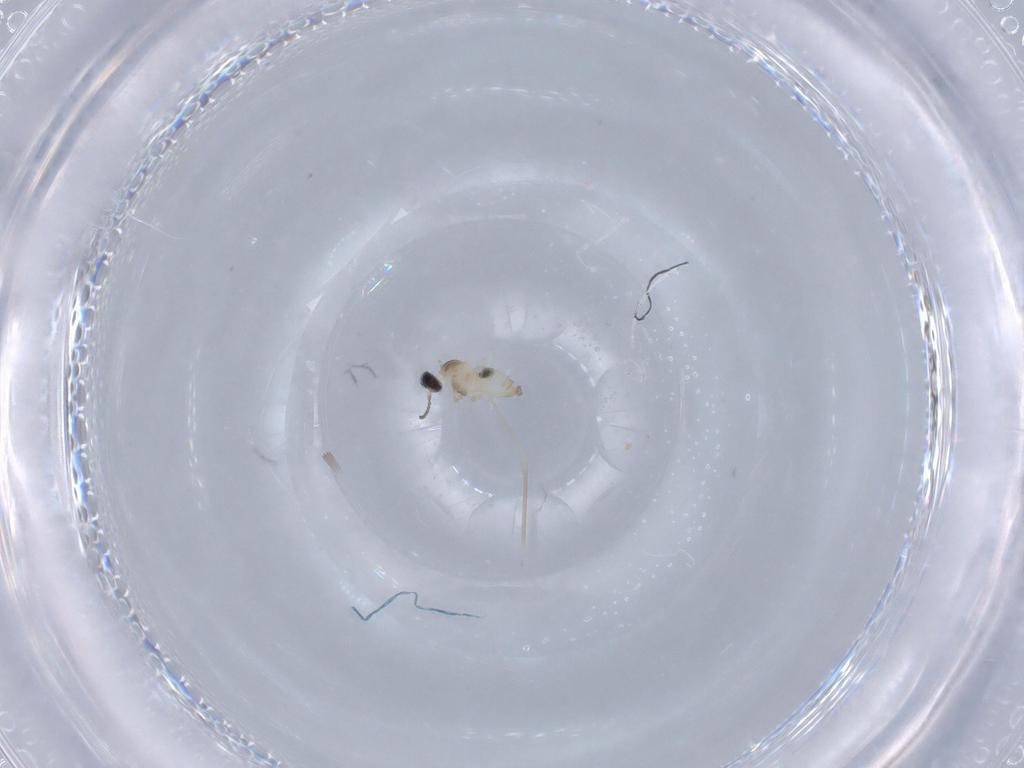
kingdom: Animalia
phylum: Arthropoda
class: Insecta
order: Diptera
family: Cecidomyiidae
